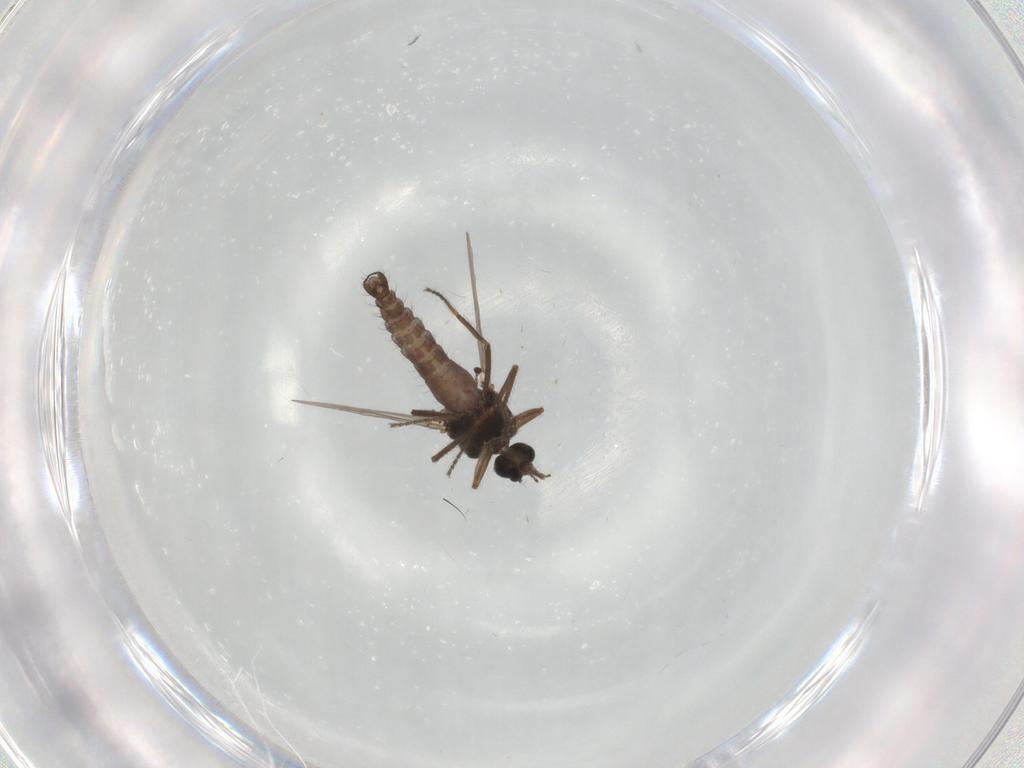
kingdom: Animalia
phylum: Arthropoda
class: Insecta
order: Diptera
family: Ceratopogonidae
